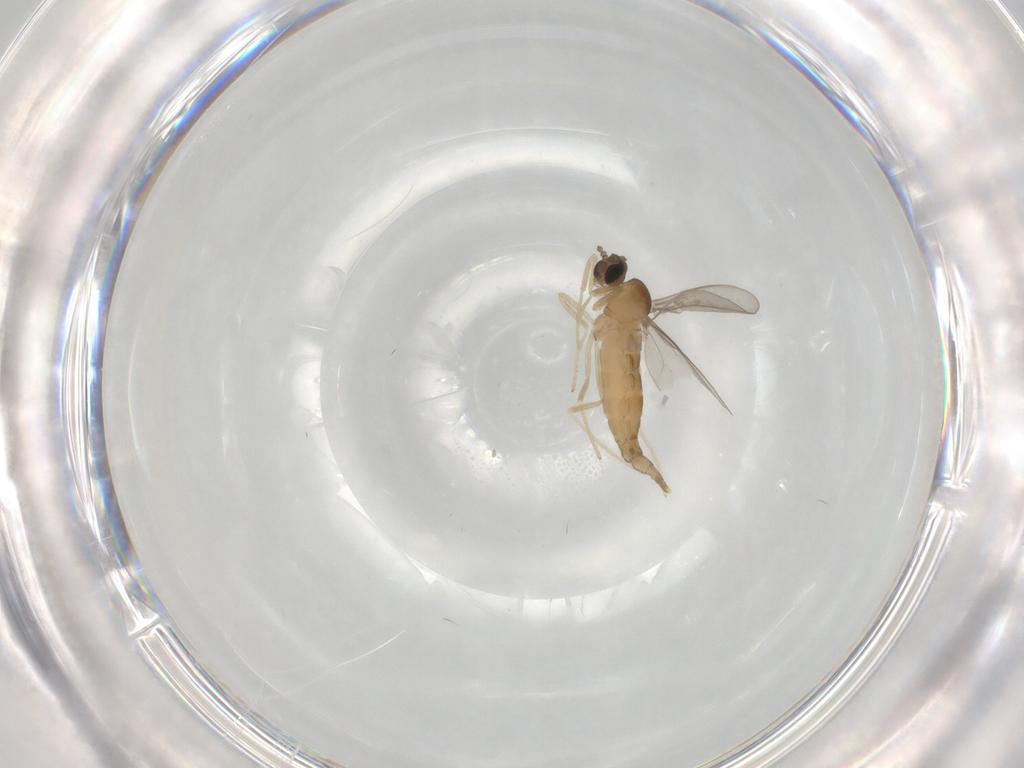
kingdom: Animalia
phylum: Arthropoda
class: Insecta
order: Diptera
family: Cecidomyiidae
